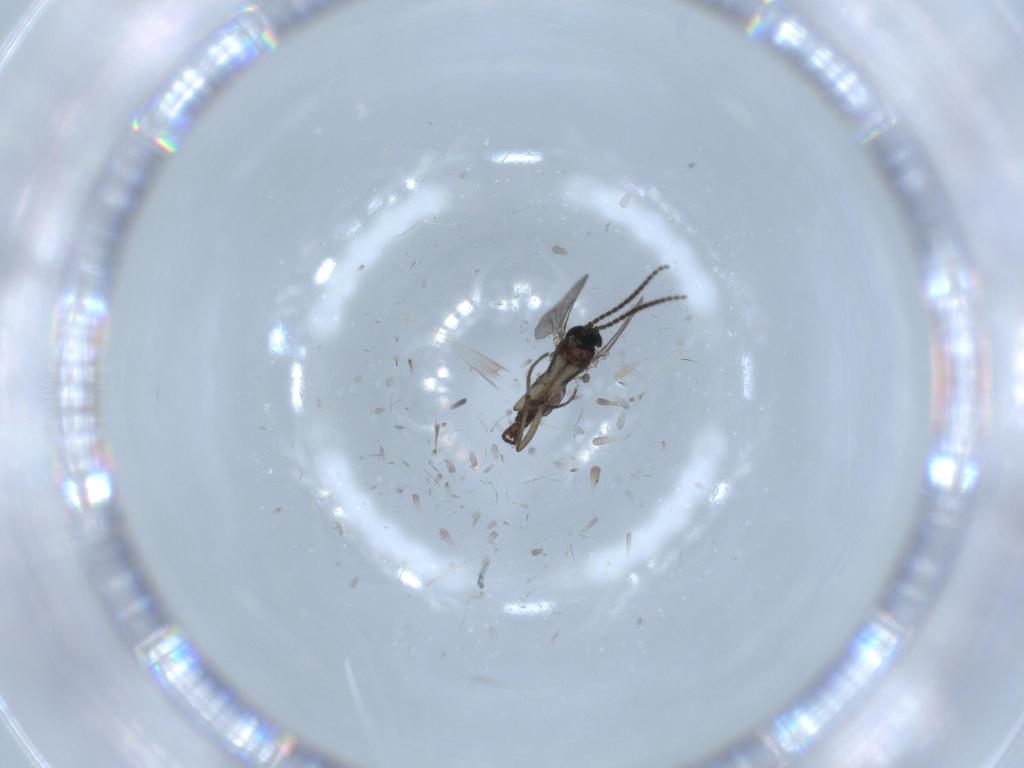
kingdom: Animalia
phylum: Arthropoda
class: Insecta
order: Diptera
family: Sciaridae
